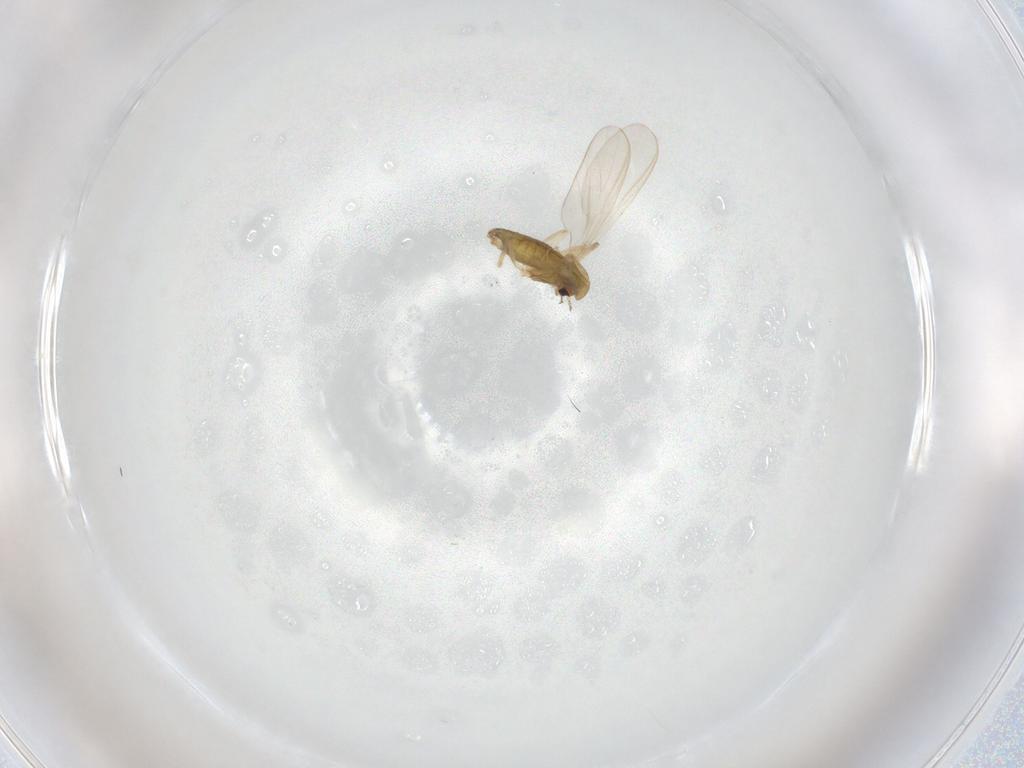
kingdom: Animalia
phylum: Arthropoda
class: Insecta
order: Diptera
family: Chironomidae
